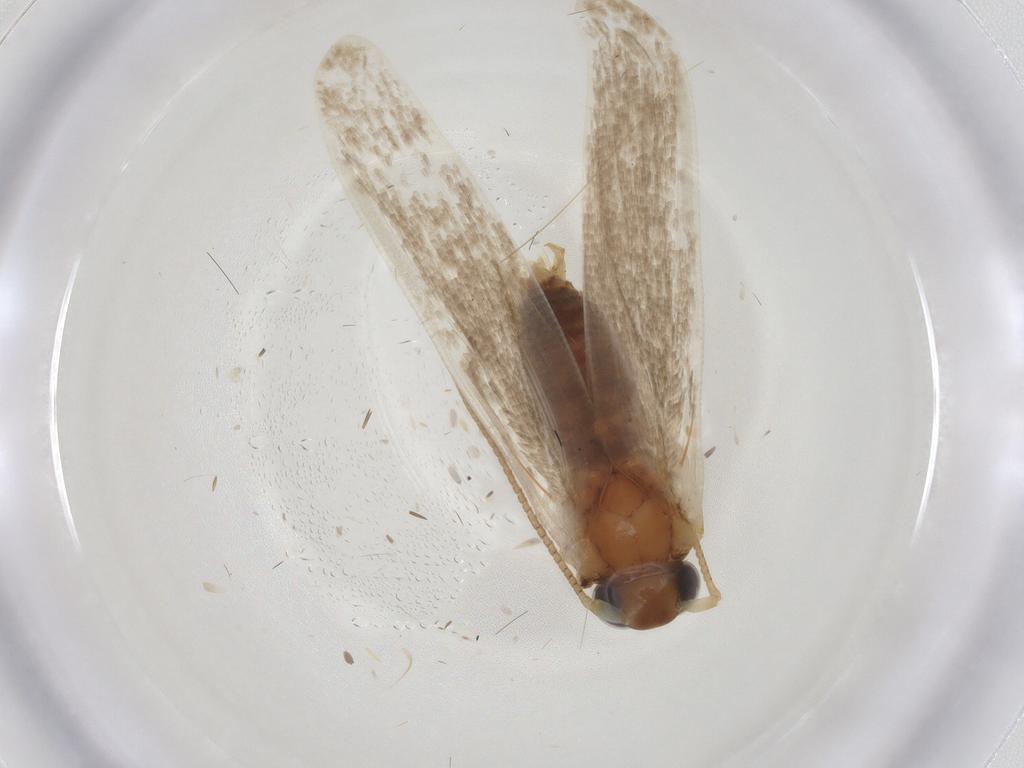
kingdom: Animalia
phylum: Arthropoda
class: Insecta
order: Lepidoptera
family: Blastobasidae
